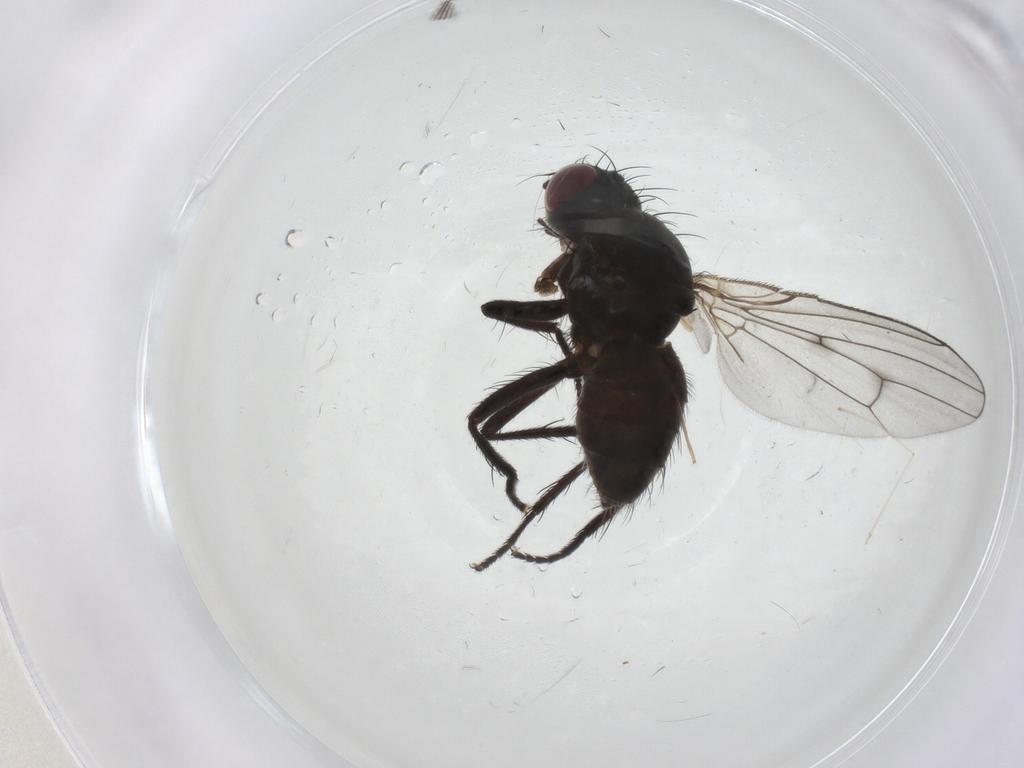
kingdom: Animalia
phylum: Arthropoda
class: Insecta
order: Diptera
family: Muscidae
